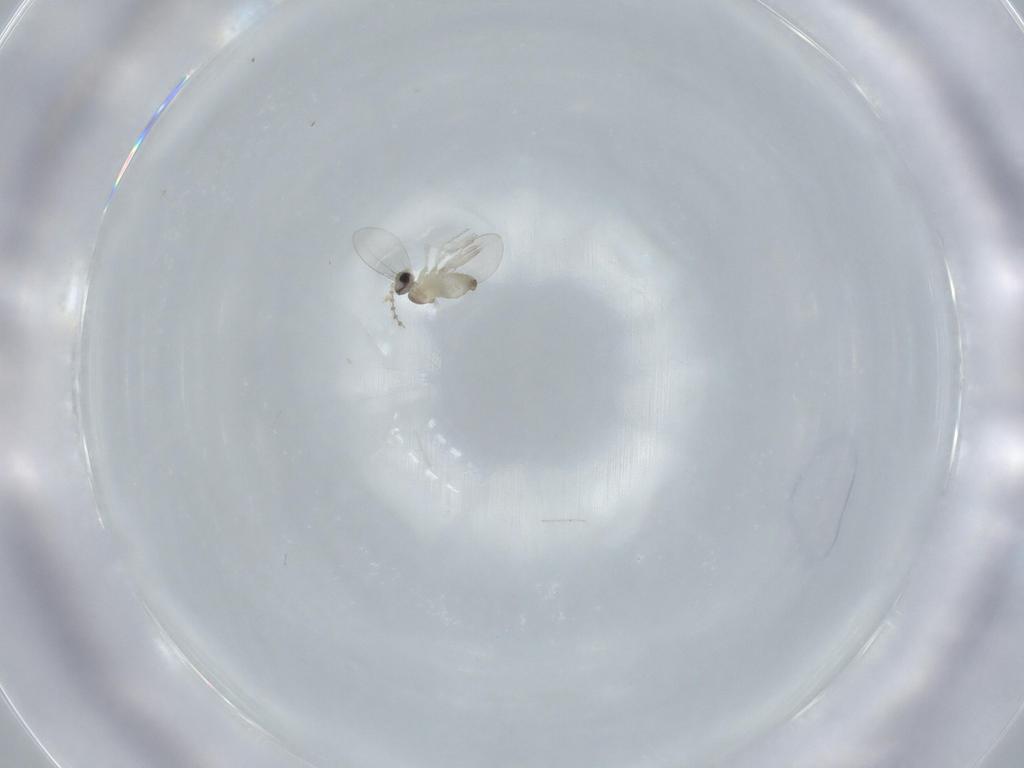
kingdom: Animalia
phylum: Arthropoda
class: Insecta
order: Diptera
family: Cecidomyiidae
